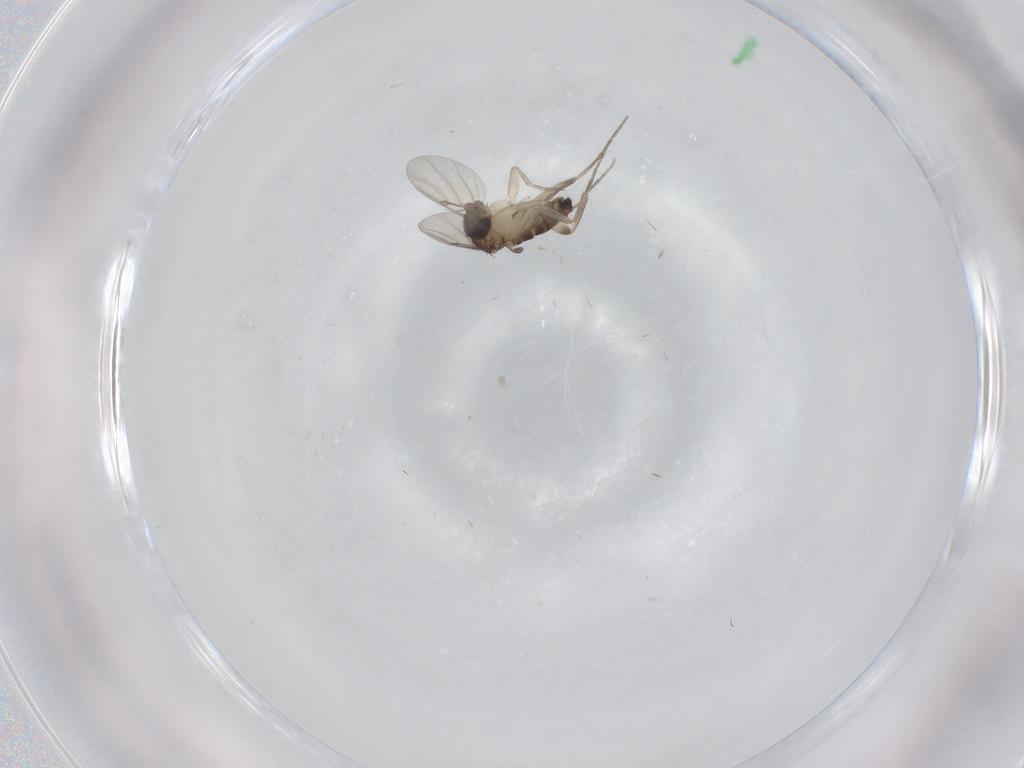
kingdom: Animalia
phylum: Arthropoda
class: Insecta
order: Diptera
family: Phoridae
